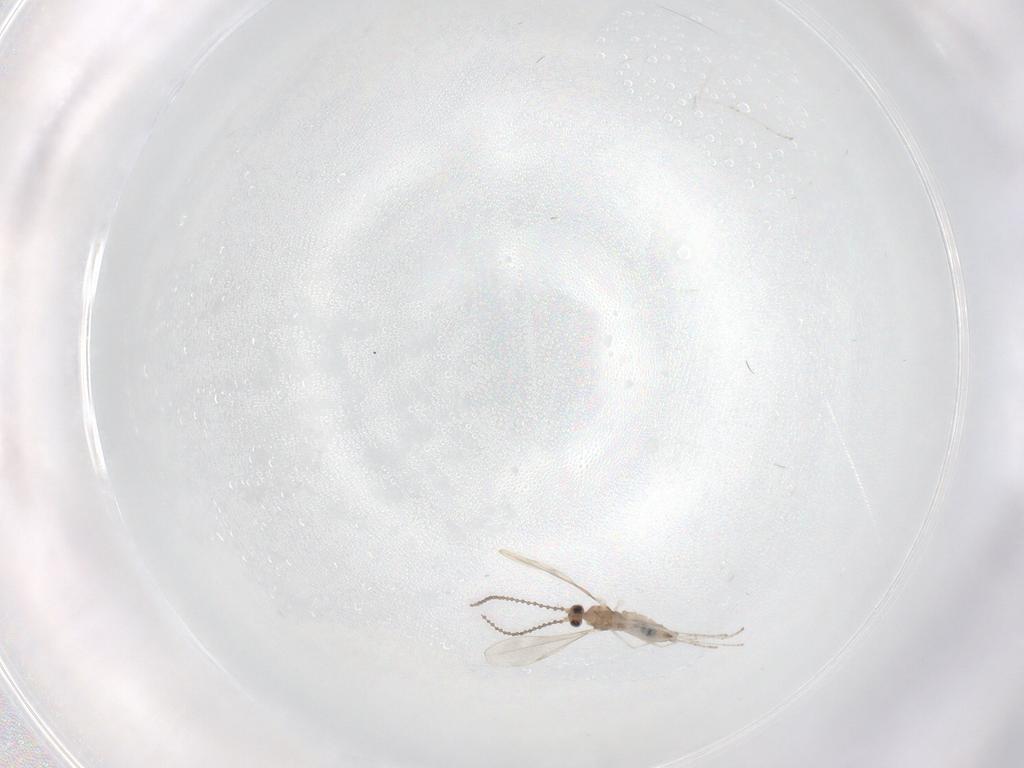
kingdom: Animalia
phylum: Arthropoda
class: Insecta
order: Diptera
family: Cecidomyiidae
